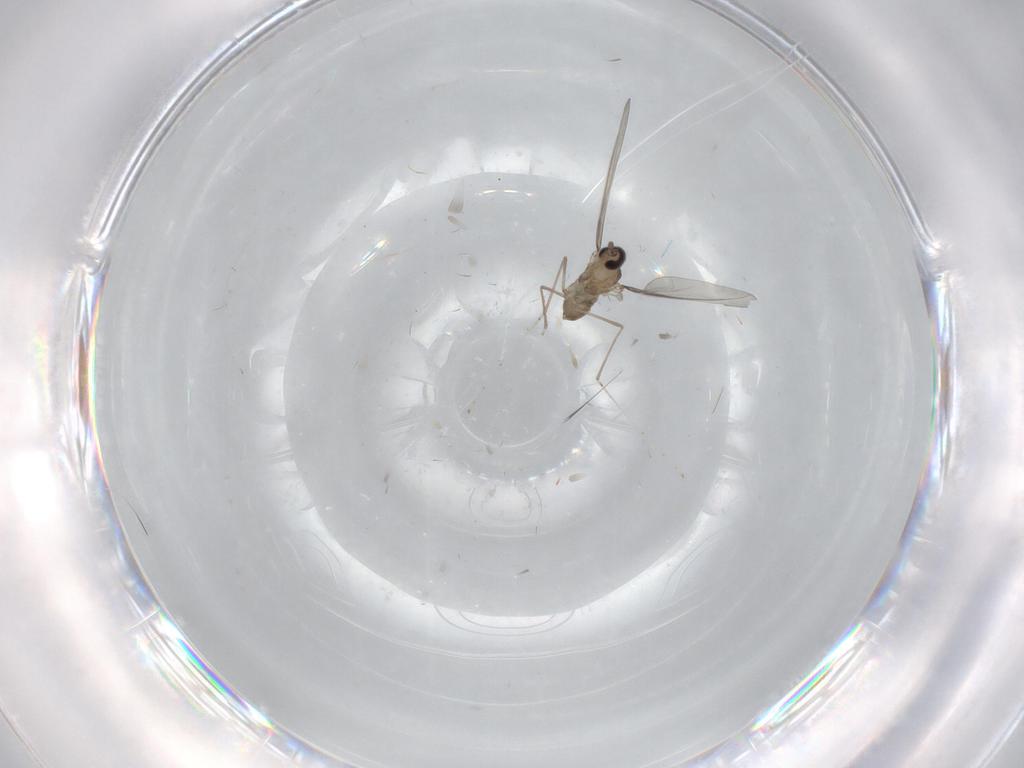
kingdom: Animalia
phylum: Arthropoda
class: Insecta
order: Diptera
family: Cecidomyiidae
